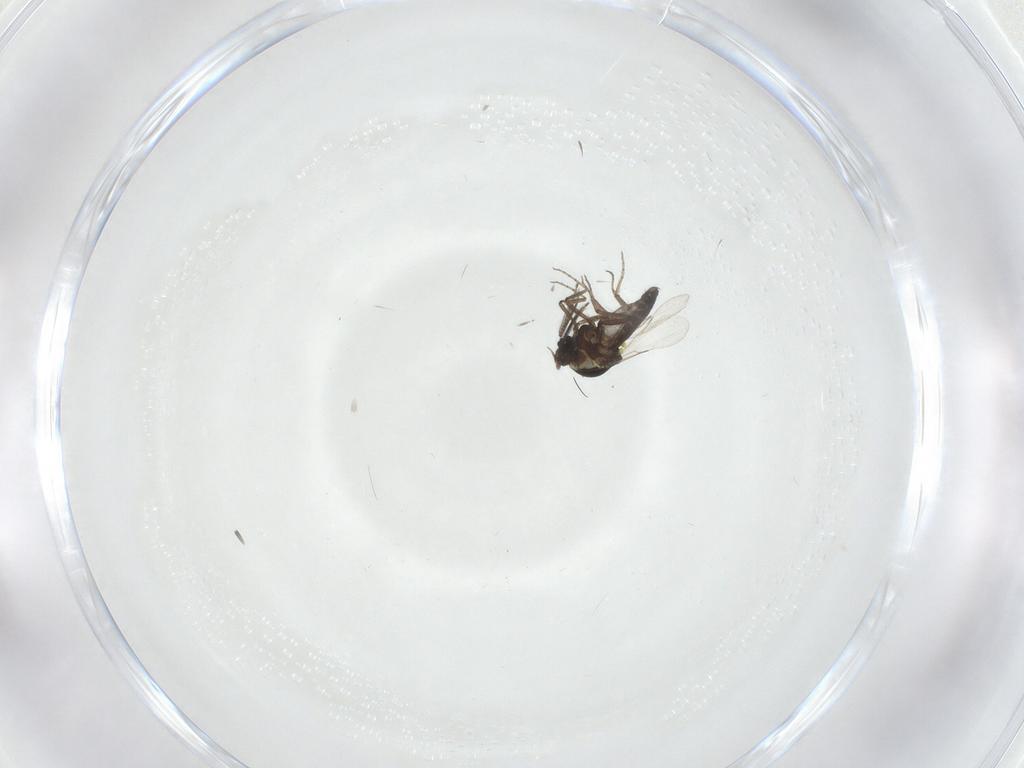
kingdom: Animalia
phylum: Arthropoda
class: Insecta
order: Diptera
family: Ceratopogonidae
